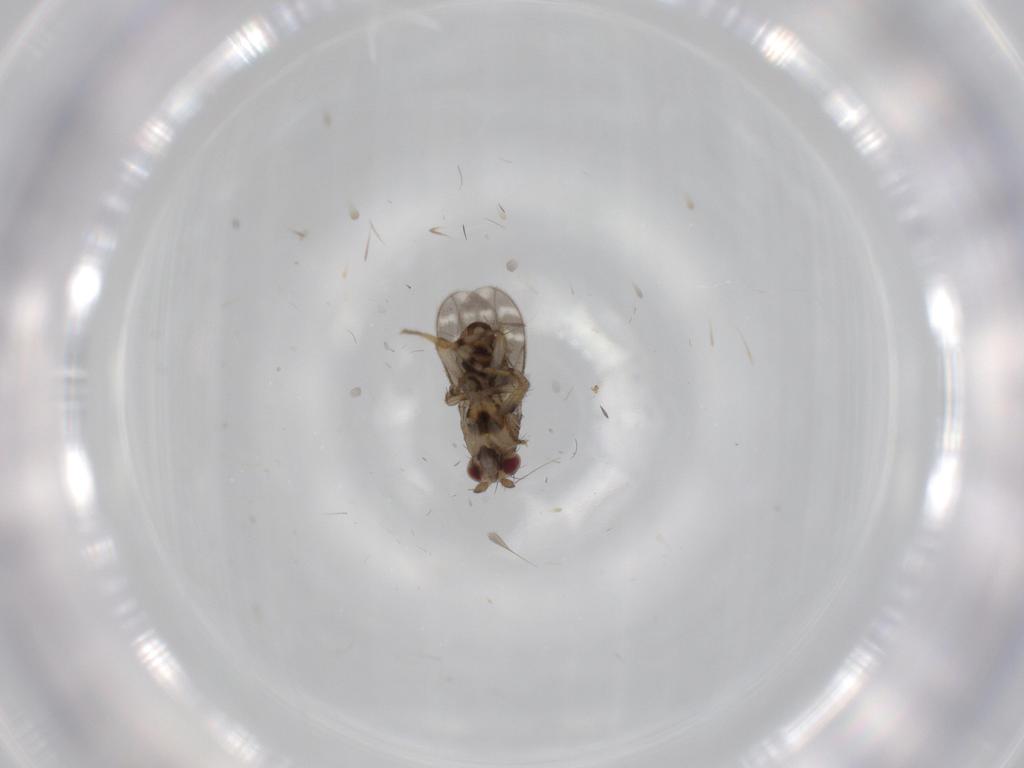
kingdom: Animalia
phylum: Arthropoda
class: Insecta
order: Diptera
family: Sphaeroceridae
